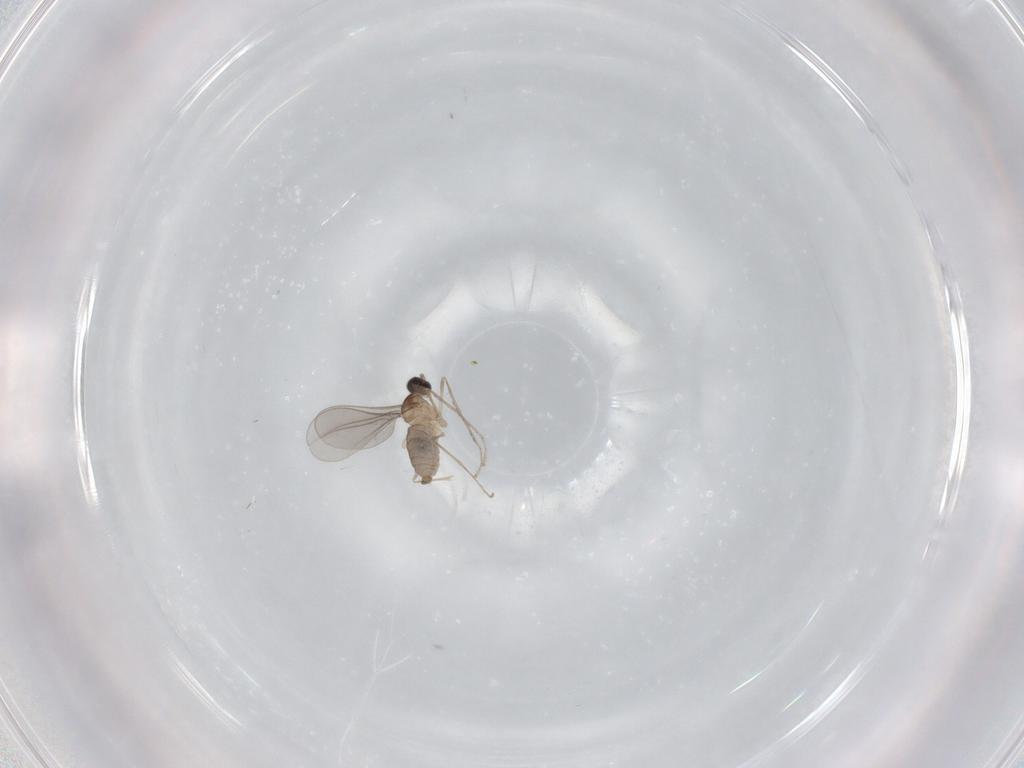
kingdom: Animalia
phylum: Arthropoda
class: Insecta
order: Diptera
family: Cecidomyiidae
